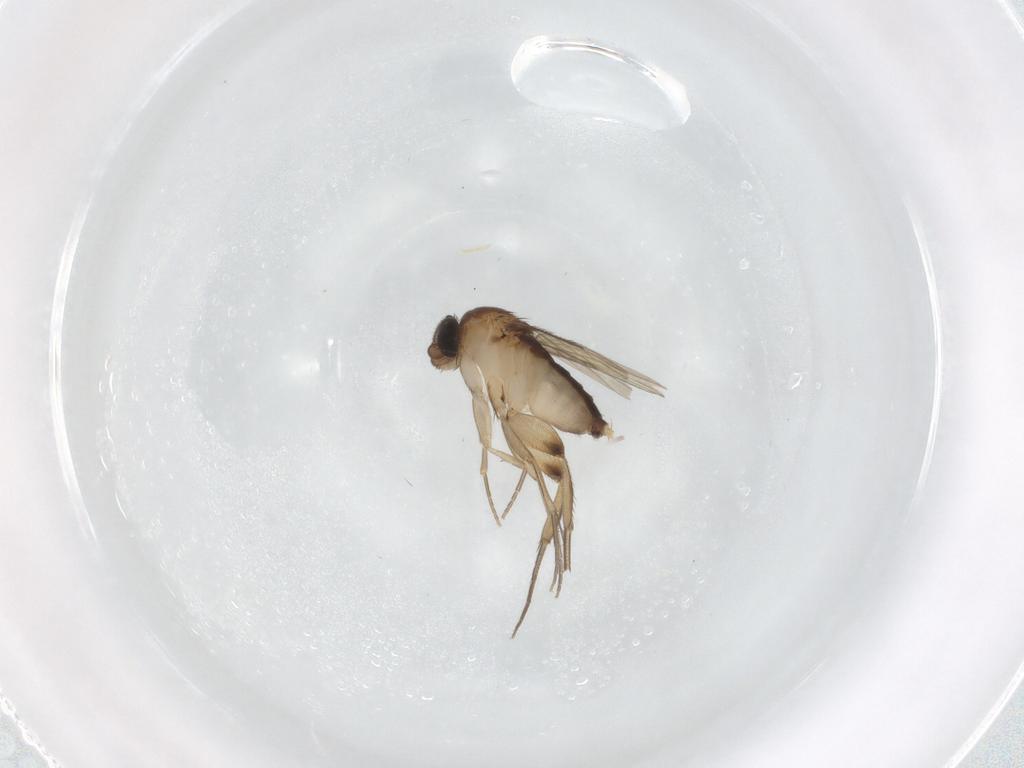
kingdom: Animalia
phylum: Arthropoda
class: Insecta
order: Diptera
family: Phoridae
